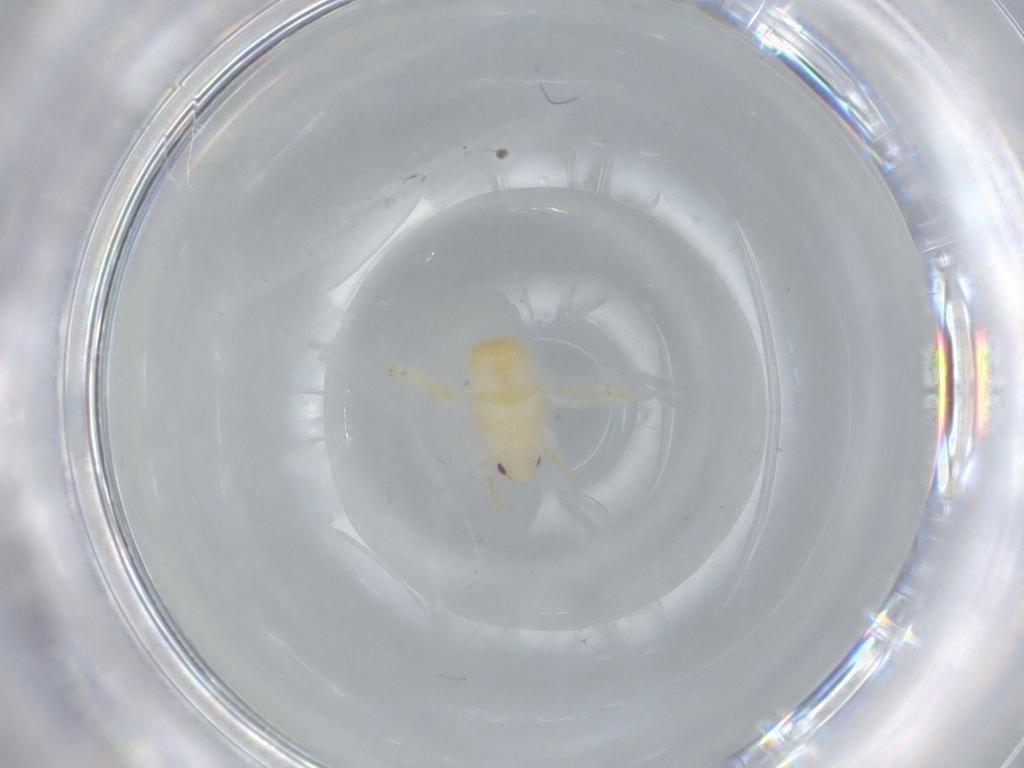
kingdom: Animalia
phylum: Arthropoda
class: Insecta
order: Hemiptera
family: Flatidae
